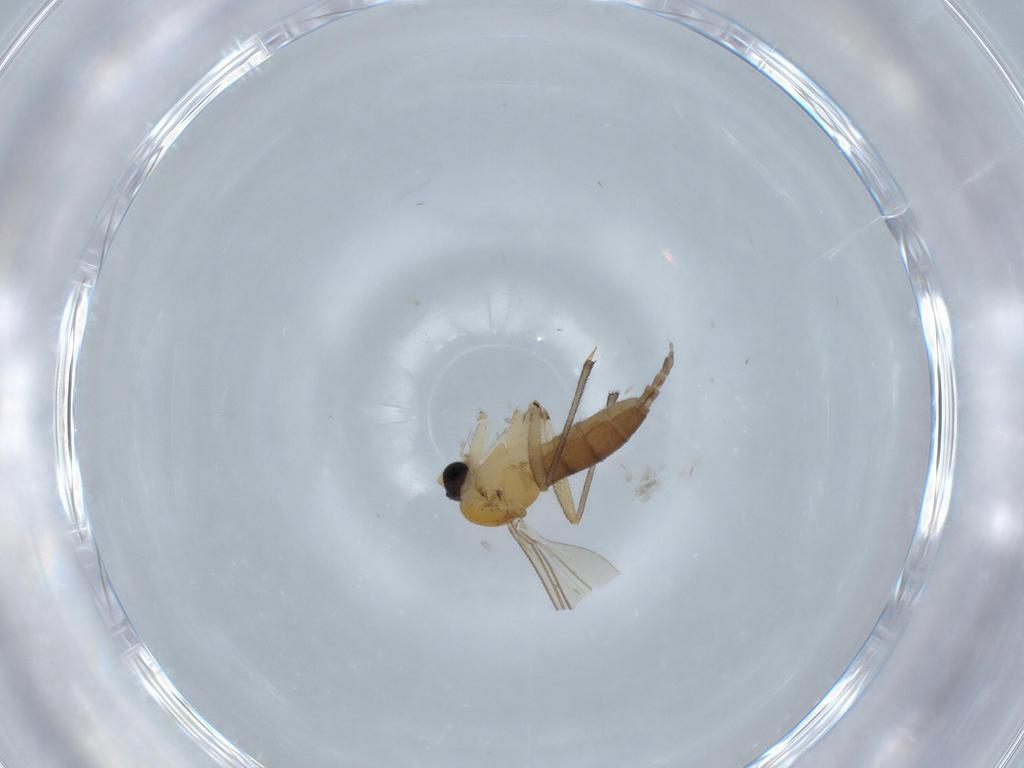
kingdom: Animalia
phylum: Arthropoda
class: Insecta
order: Diptera
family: Sciaridae
